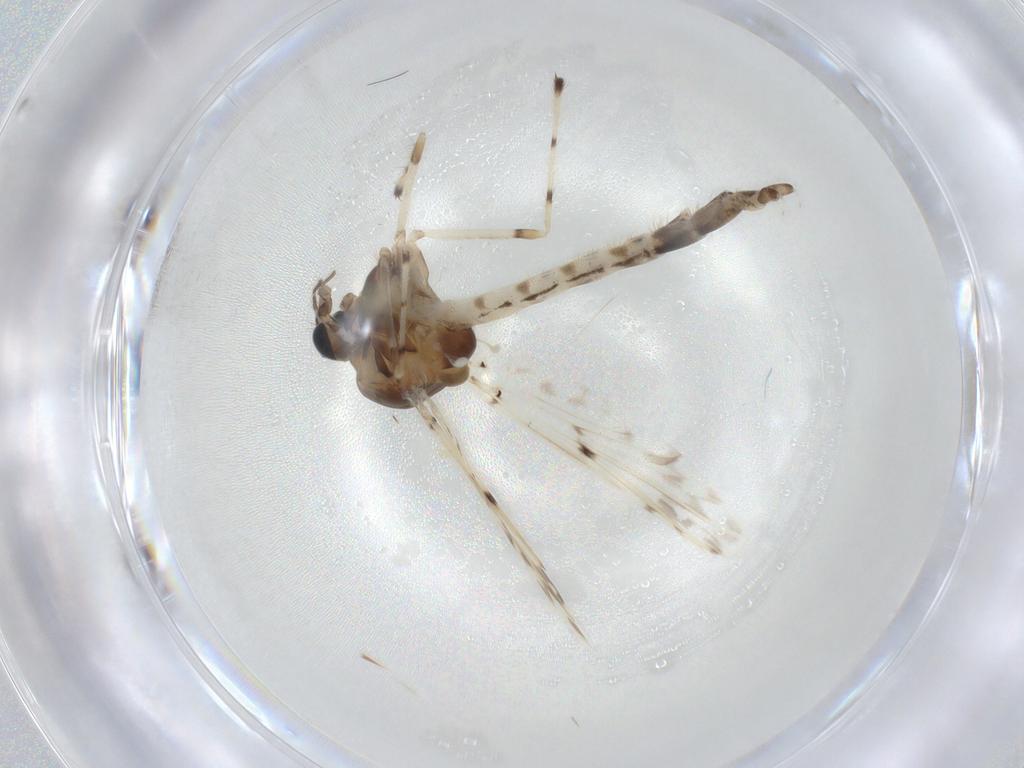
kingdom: Animalia
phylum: Arthropoda
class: Insecta
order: Diptera
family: Chironomidae
